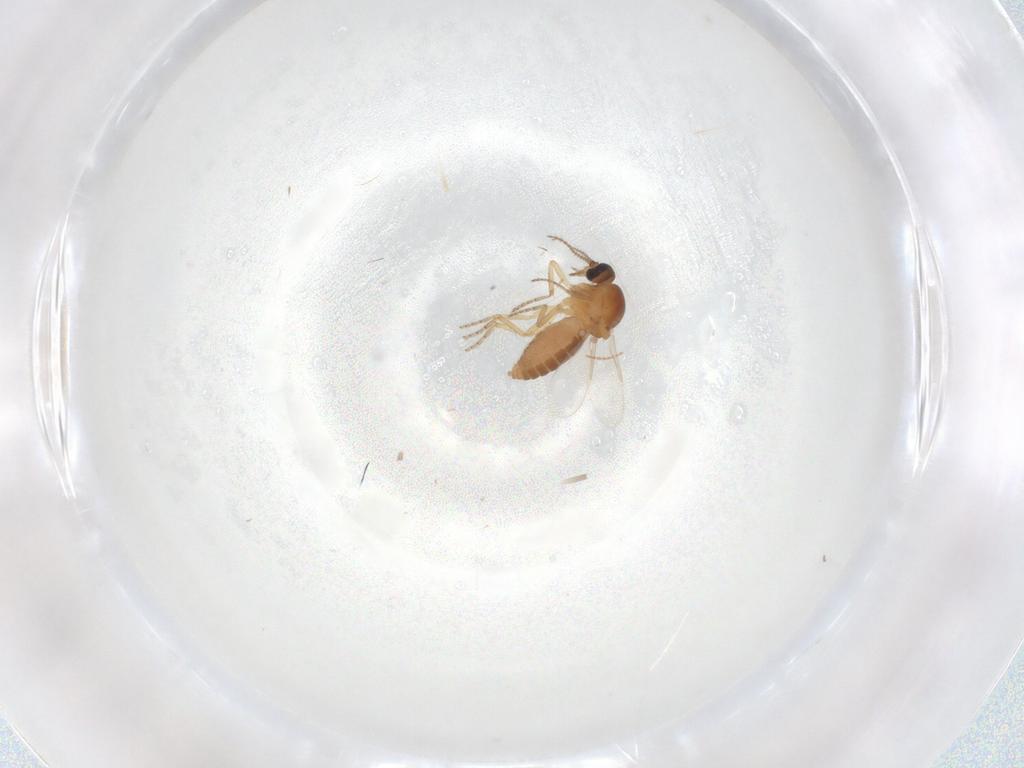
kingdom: Animalia
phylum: Arthropoda
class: Insecta
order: Diptera
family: Ceratopogonidae
